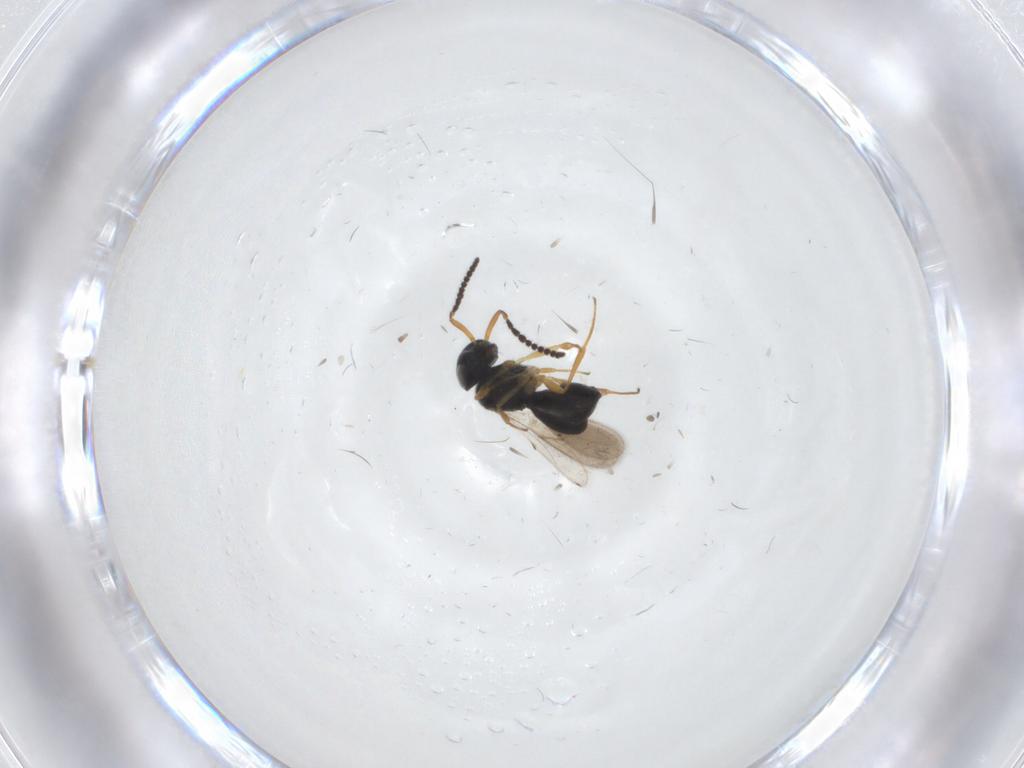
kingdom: Animalia
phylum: Arthropoda
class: Insecta
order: Hymenoptera
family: Scelionidae
